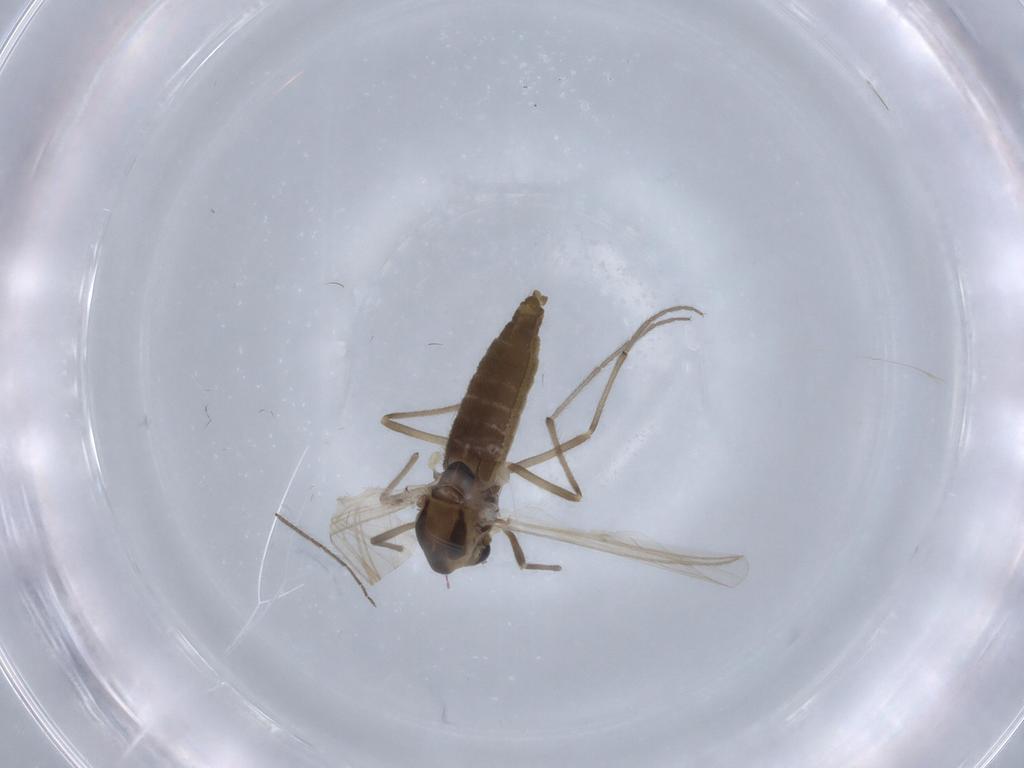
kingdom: Animalia
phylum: Arthropoda
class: Insecta
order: Diptera
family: Chironomidae
